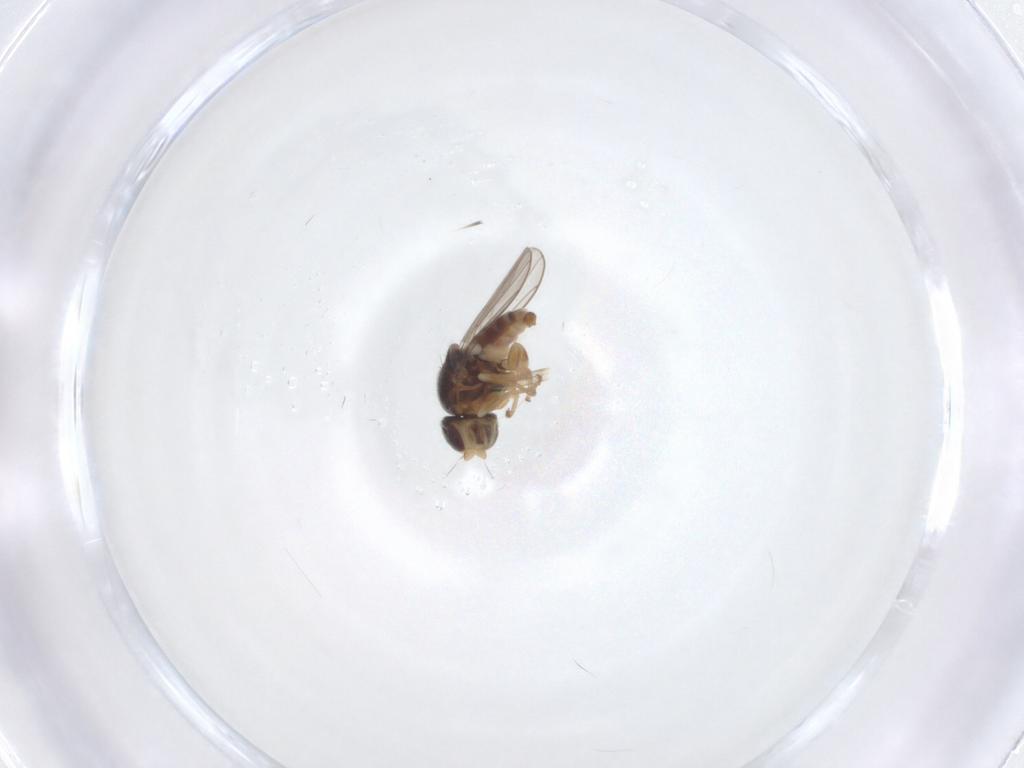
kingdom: Animalia
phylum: Arthropoda
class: Insecta
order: Diptera
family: Chloropidae
